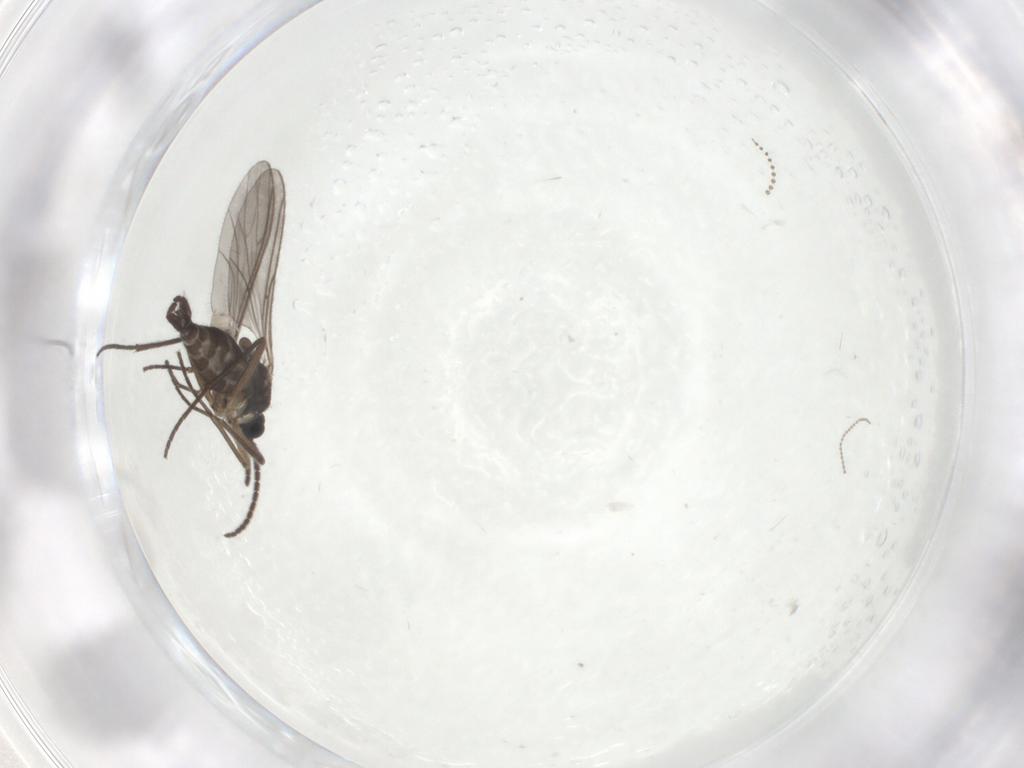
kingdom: Animalia
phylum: Arthropoda
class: Insecta
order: Diptera
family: Sciaridae
